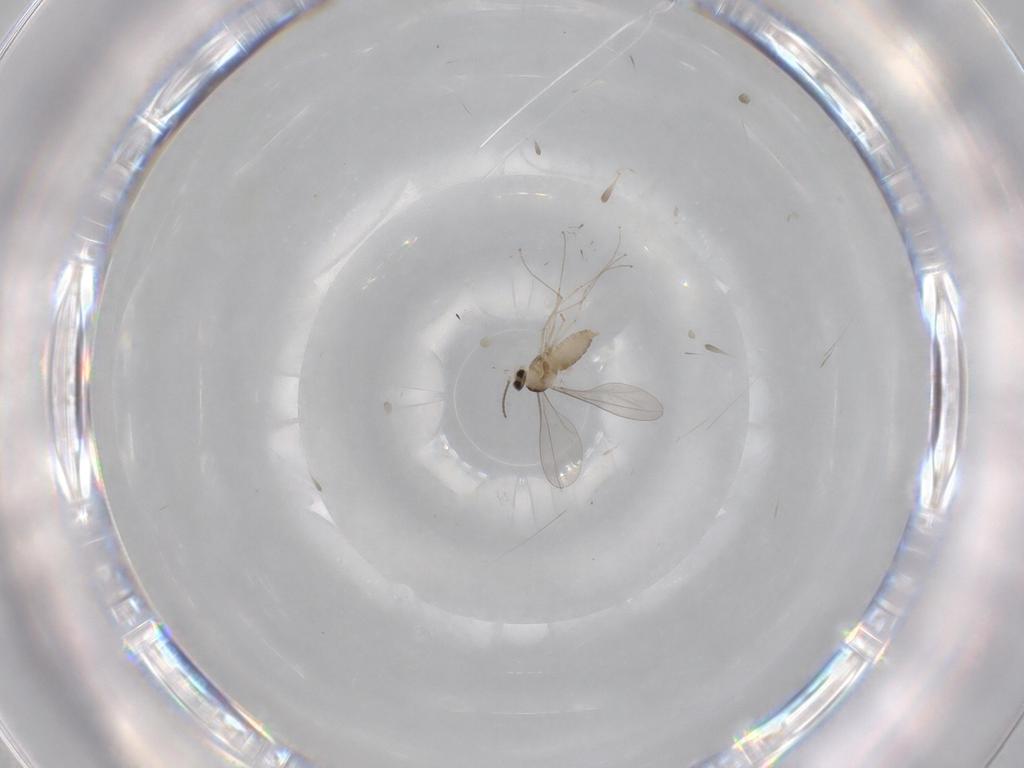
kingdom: Animalia
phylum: Arthropoda
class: Insecta
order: Diptera
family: Cecidomyiidae
